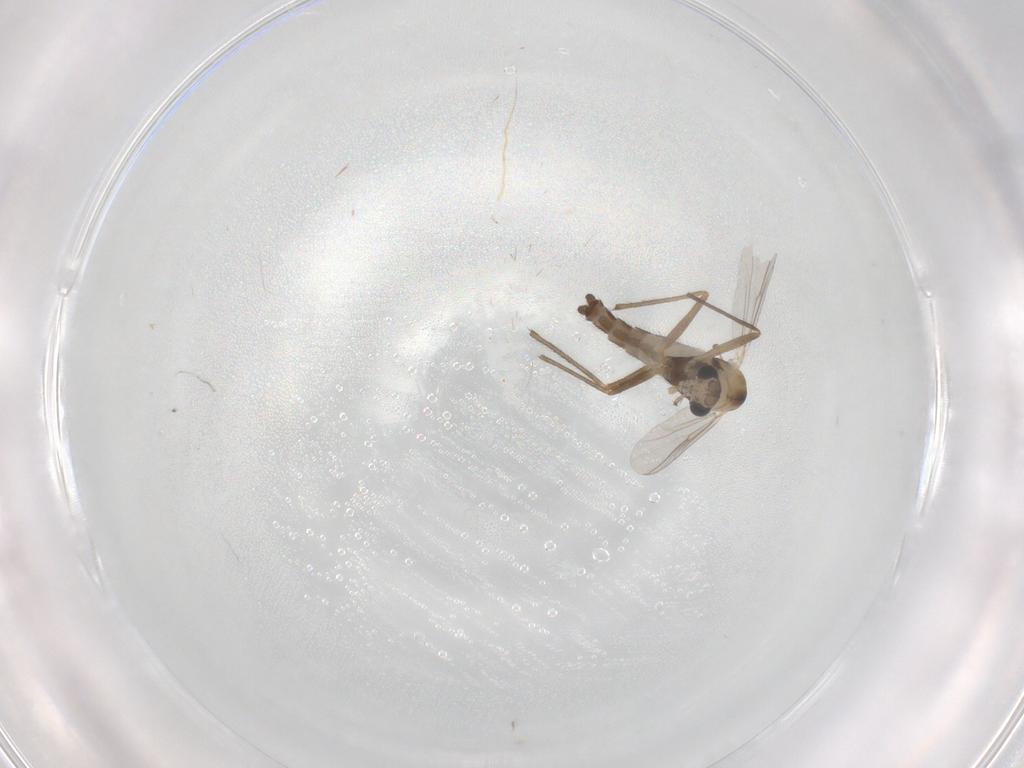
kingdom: Animalia
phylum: Arthropoda
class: Insecta
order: Diptera
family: Chironomidae
